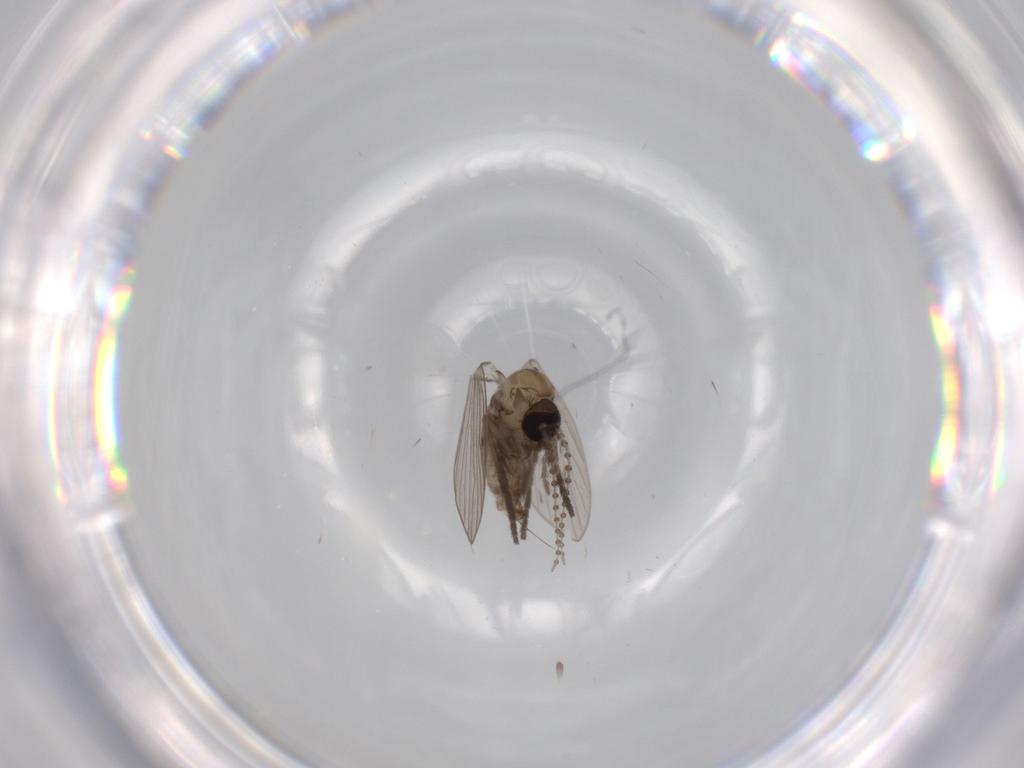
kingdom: Animalia
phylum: Arthropoda
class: Insecta
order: Diptera
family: Psychodidae
